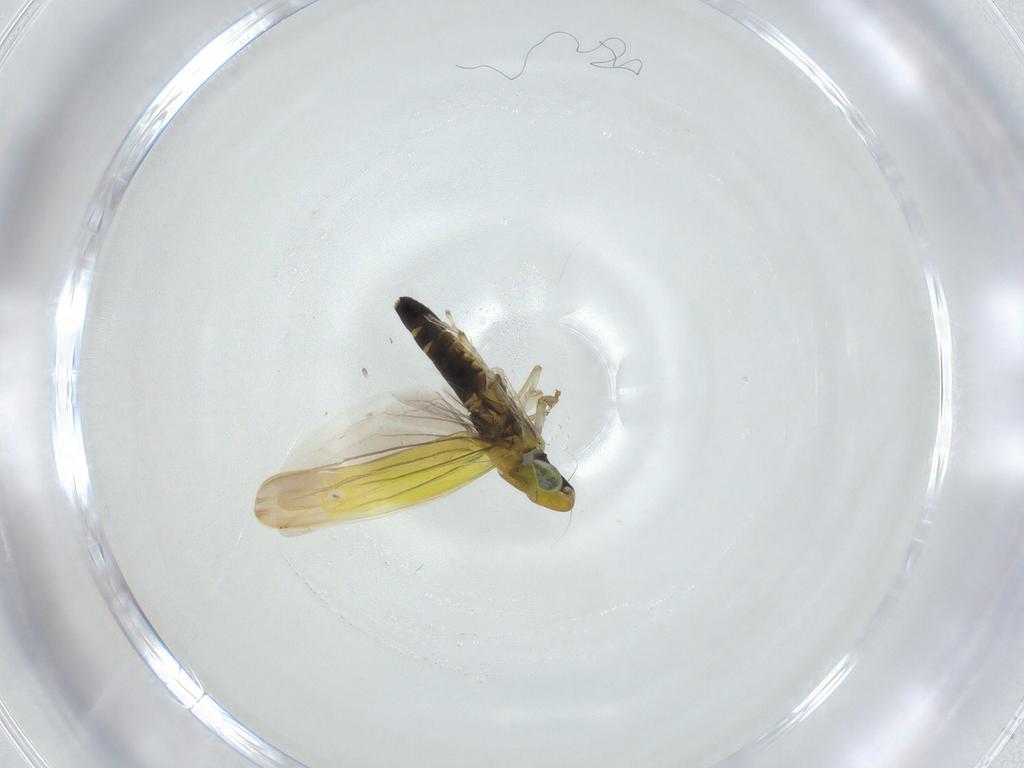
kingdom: Animalia
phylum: Arthropoda
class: Insecta
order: Hemiptera
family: Cicadellidae
